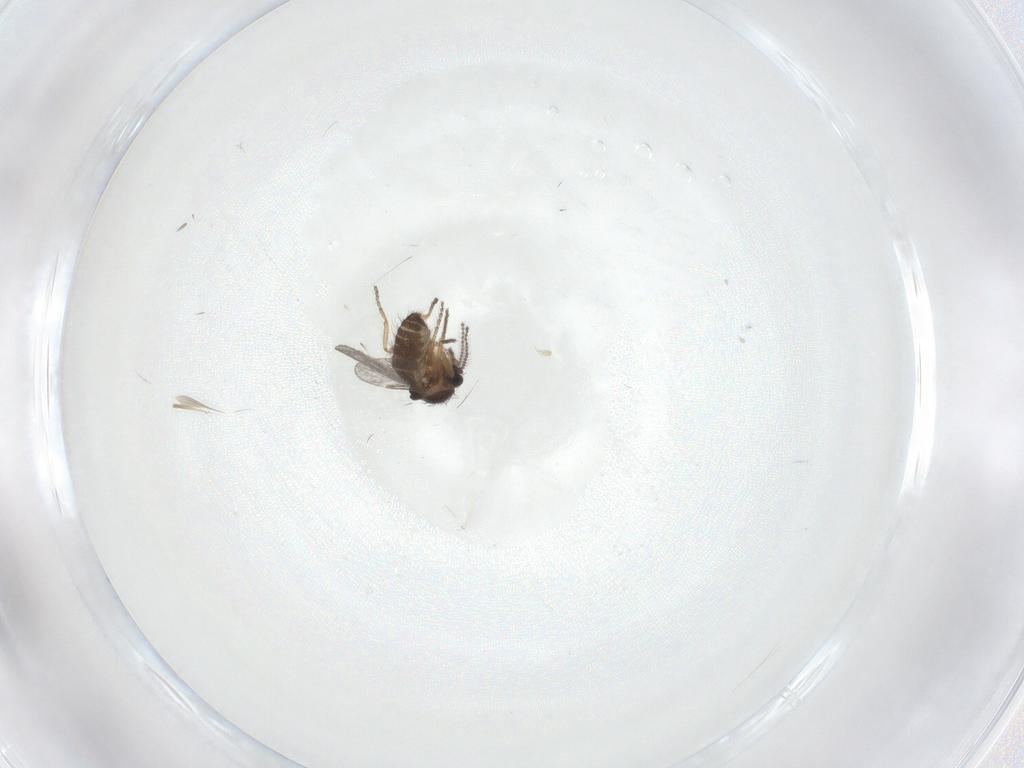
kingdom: Animalia
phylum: Arthropoda
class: Insecta
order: Diptera
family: Ceratopogonidae
